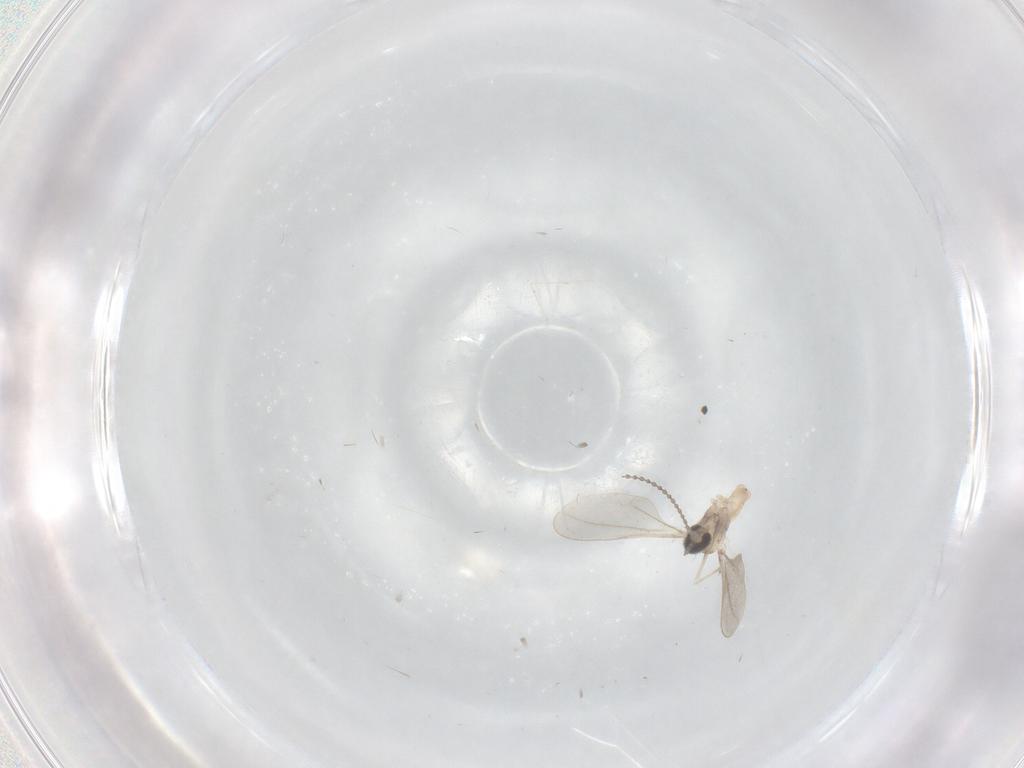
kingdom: Animalia
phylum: Arthropoda
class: Insecta
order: Diptera
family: Cecidomyiidae
